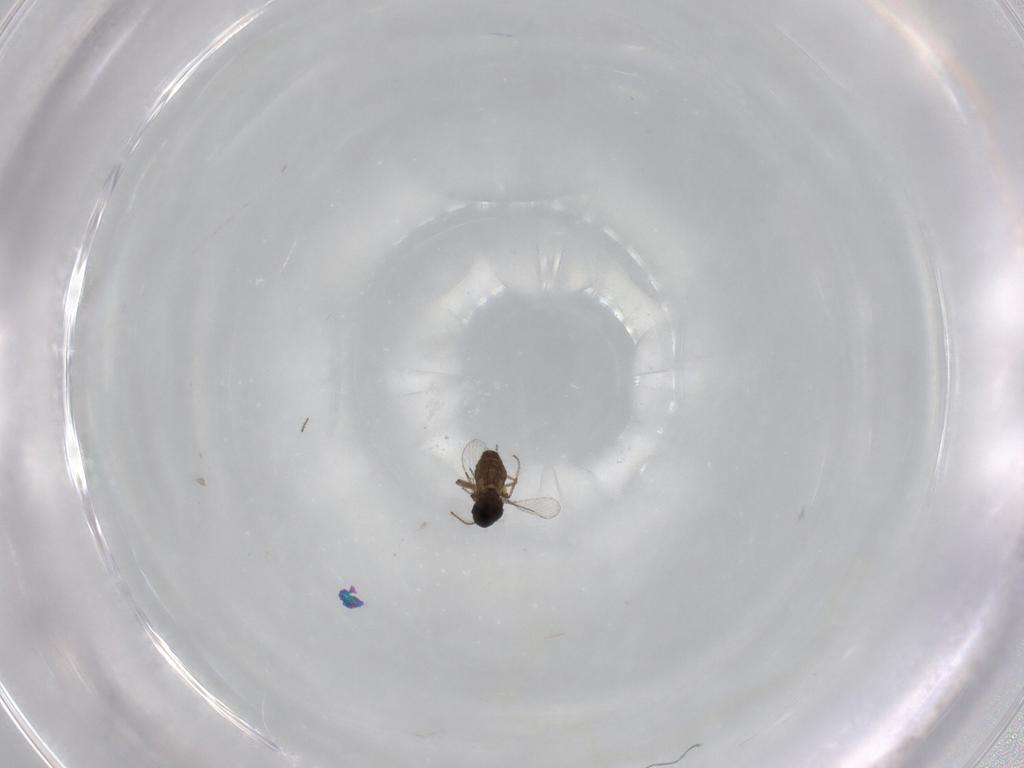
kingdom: Animalia
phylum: Arthropoda
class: Insecta
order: Diptera
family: Ceratopogonidae
